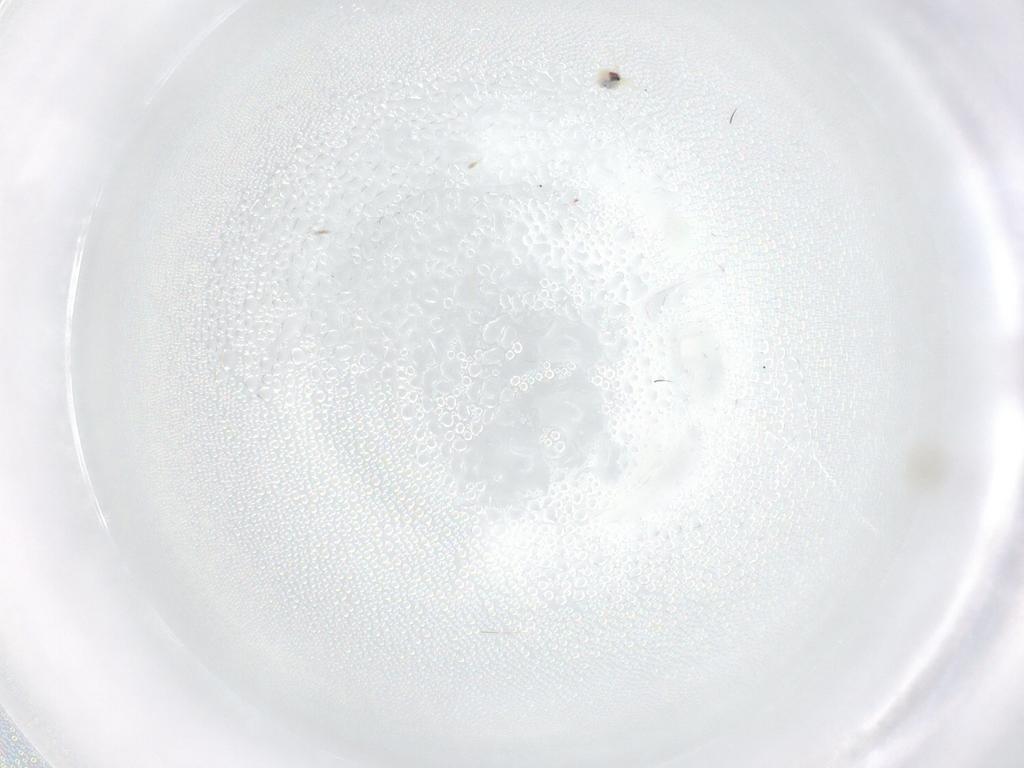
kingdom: Animalia
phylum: Arthropoda
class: Insecta
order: Hemiptera
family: Aleyrodidae
